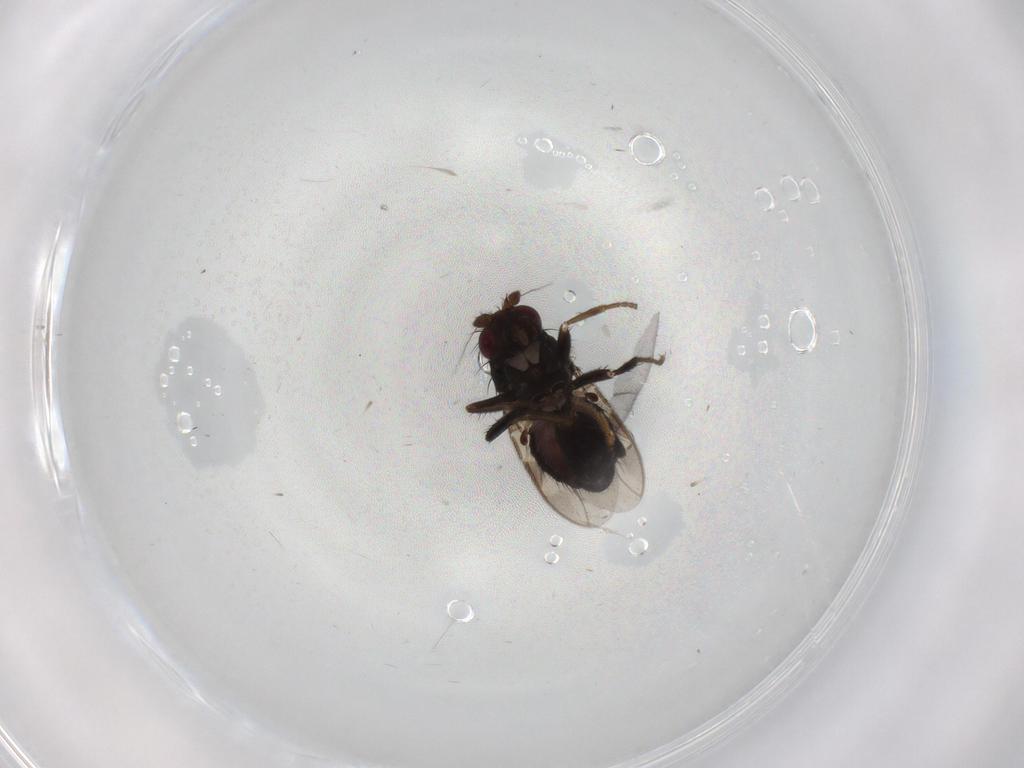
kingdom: Animalia
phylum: Arthropoda
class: Insecta
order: Diptera
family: Sphaeroceridae
